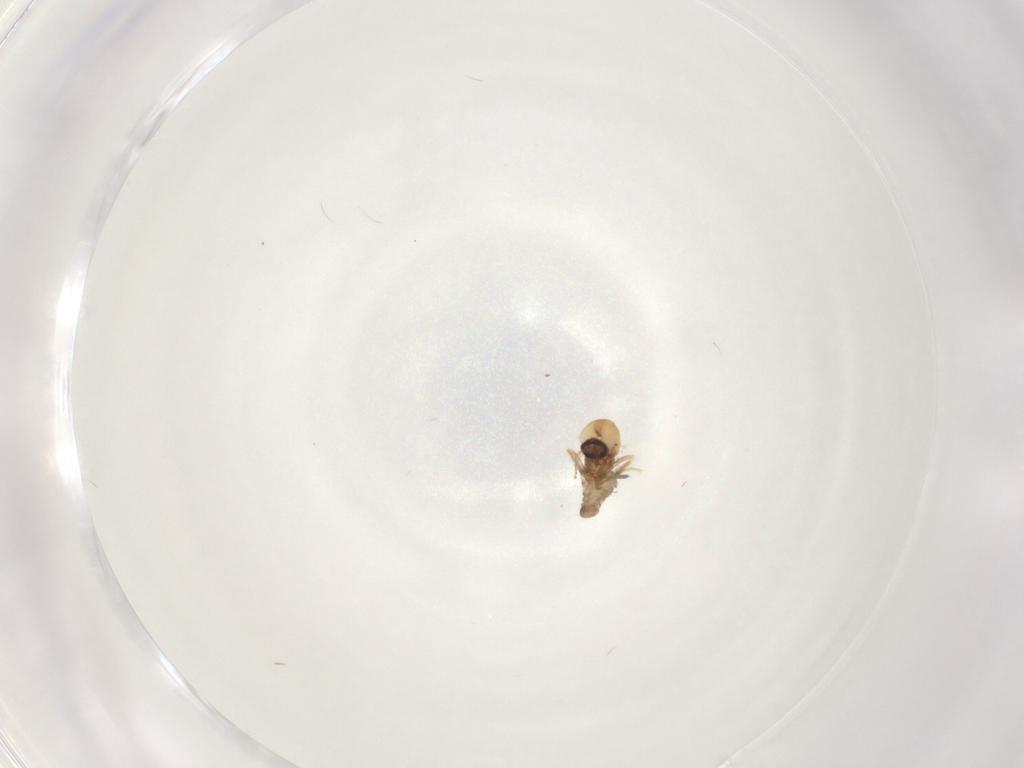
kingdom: Animalia
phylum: Arthropoda
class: Insecta
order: Diptera
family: Ceratopogonidae
